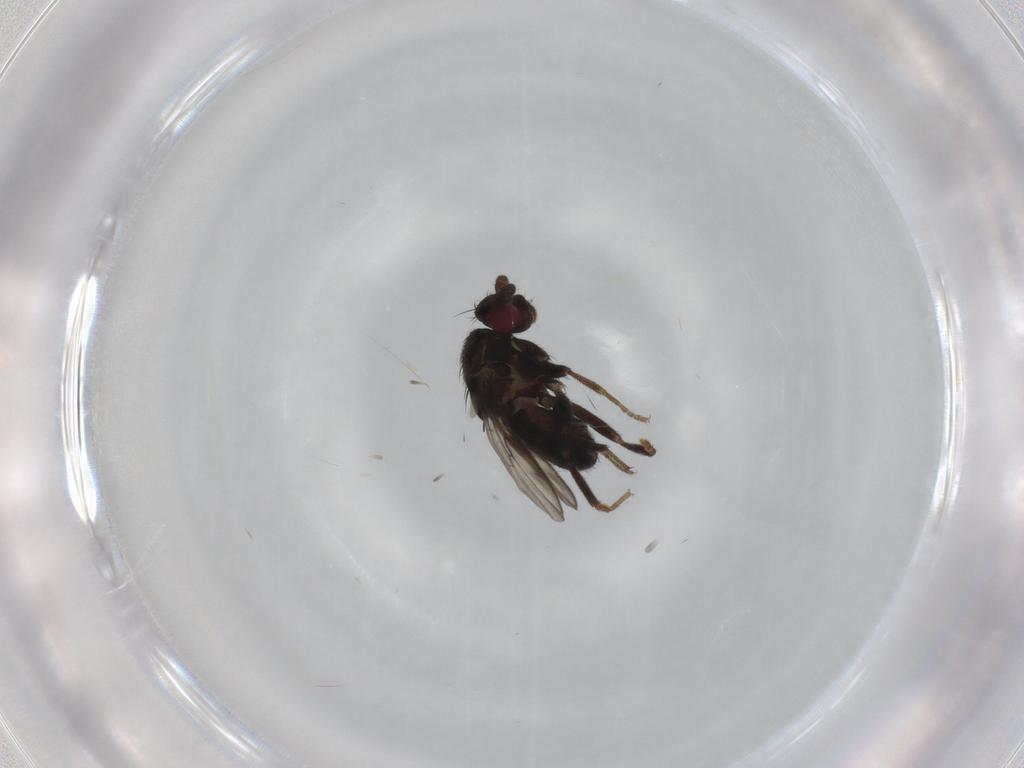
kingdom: Animalia
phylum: Arthropoda
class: Insecta
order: Diptera
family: Sphaeroceridae
